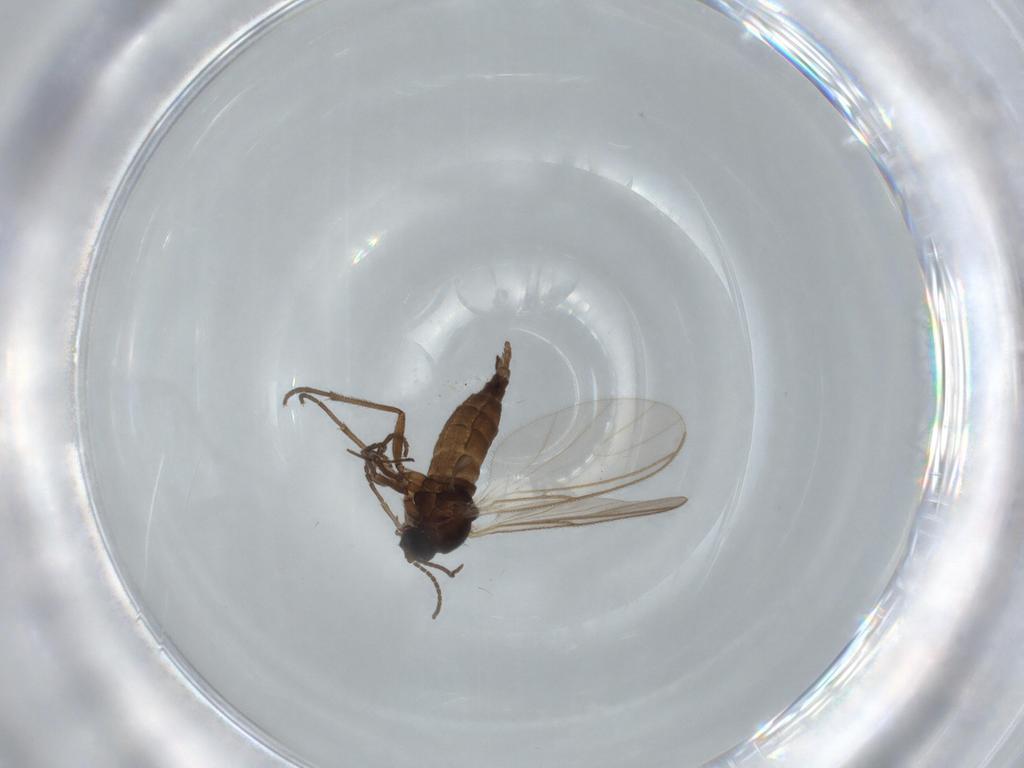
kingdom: Animalia
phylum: Arthropoda
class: Insecta
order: Diptera
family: Sciaridae
